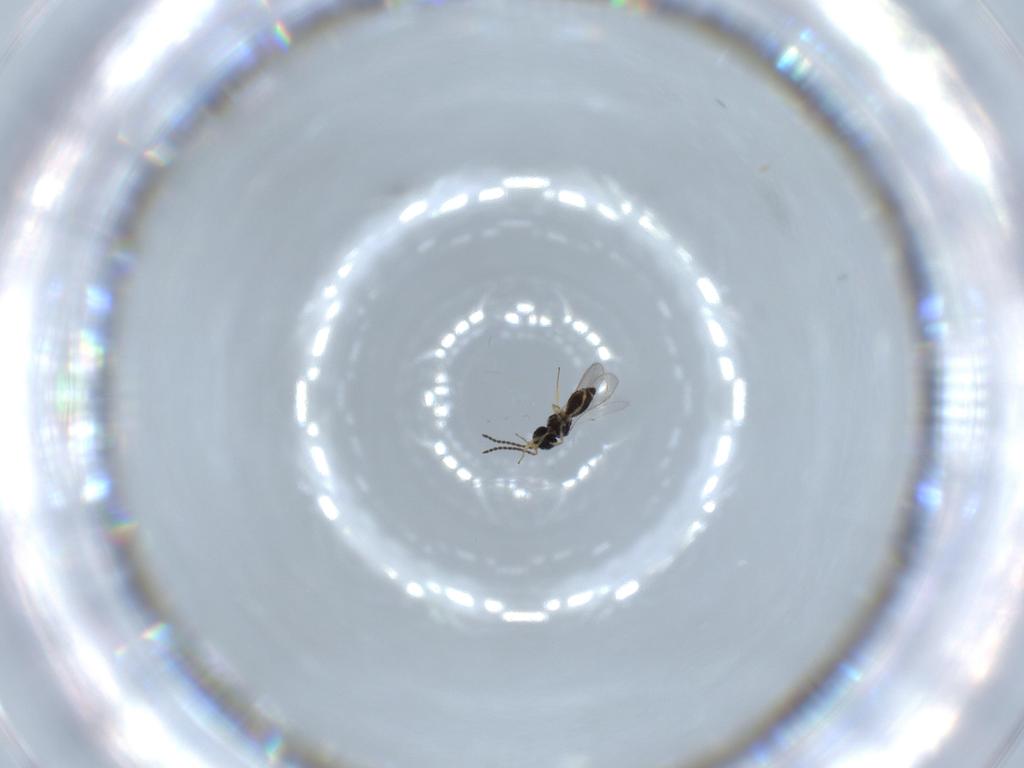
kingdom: Animalia
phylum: Arthropoda
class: Insecta
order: Hymenoptera
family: Scelionidae
